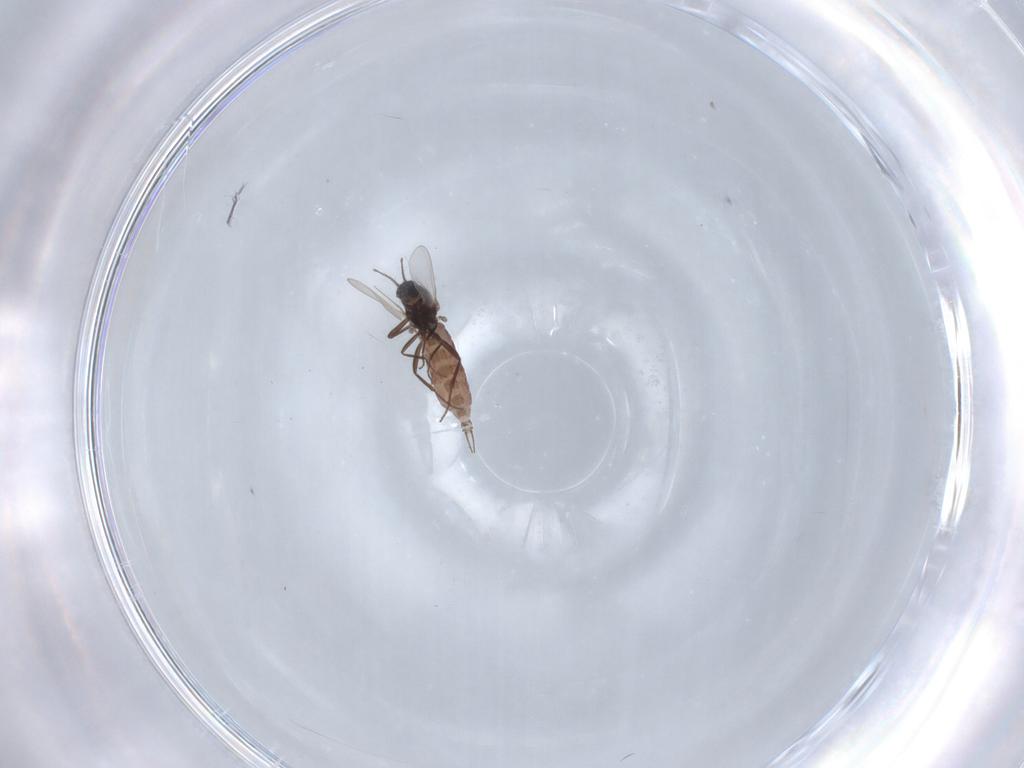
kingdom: Animalia
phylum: Arthropoda
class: Insecta
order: Diptera
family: Ceratopogonidae
